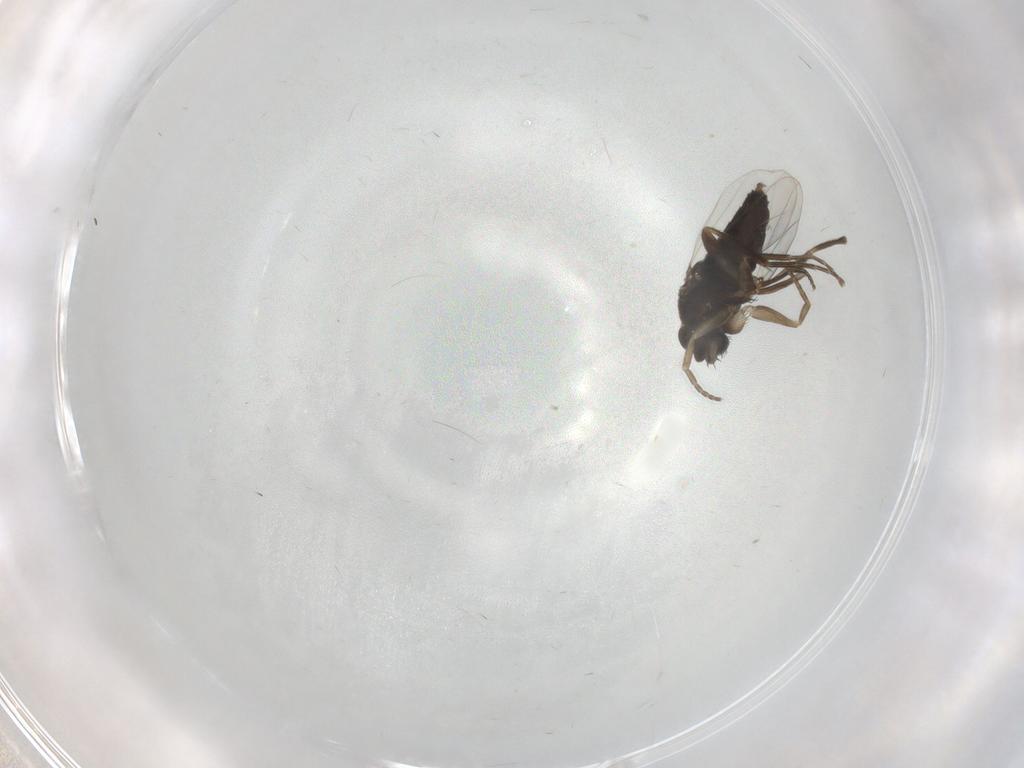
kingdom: Animalia
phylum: Arthropoda
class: Insecta
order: Diptera
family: Phoridae
